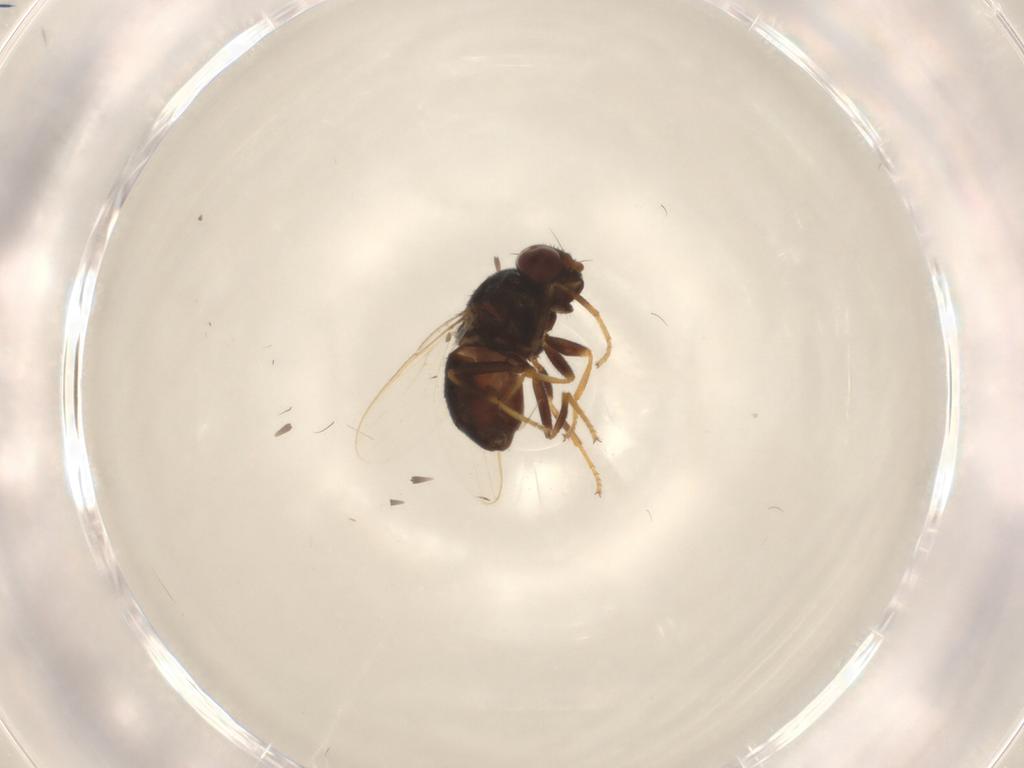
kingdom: Animalia
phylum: Arthropoda
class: Insecta
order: Diptera
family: Chloropidae
